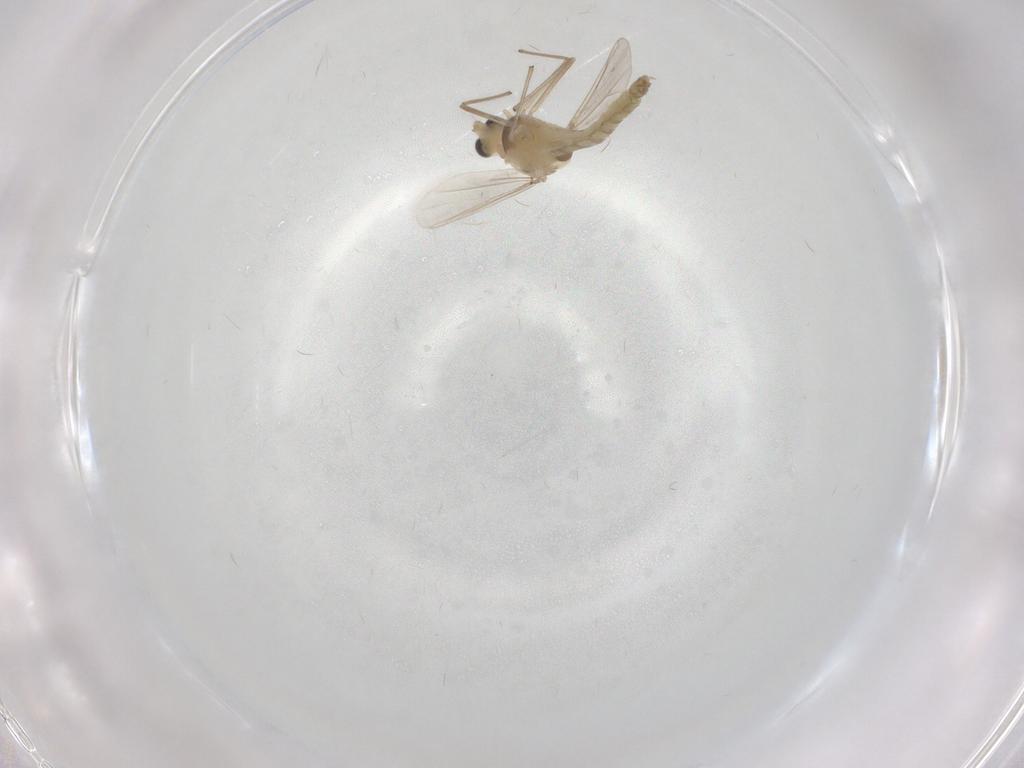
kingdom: Animalia
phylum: Arthropoda
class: Insecta
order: Diptera
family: Chironomidae
